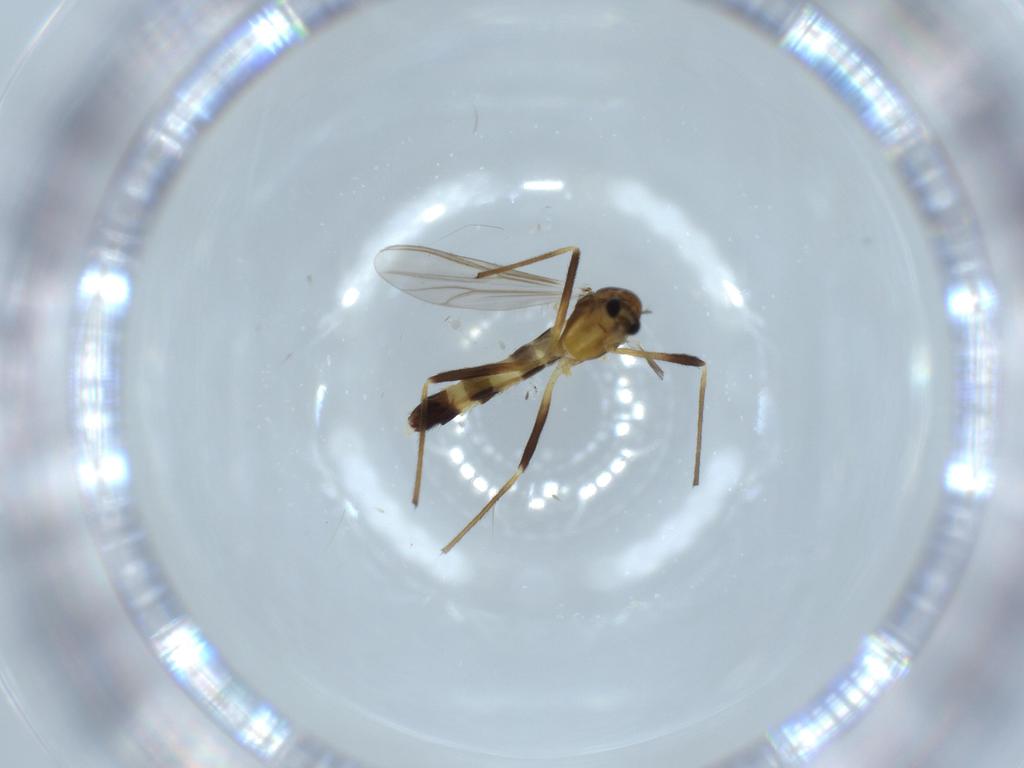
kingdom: Animalia
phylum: Arthropoda
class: Insecta
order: Diptera
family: Chironomidae
